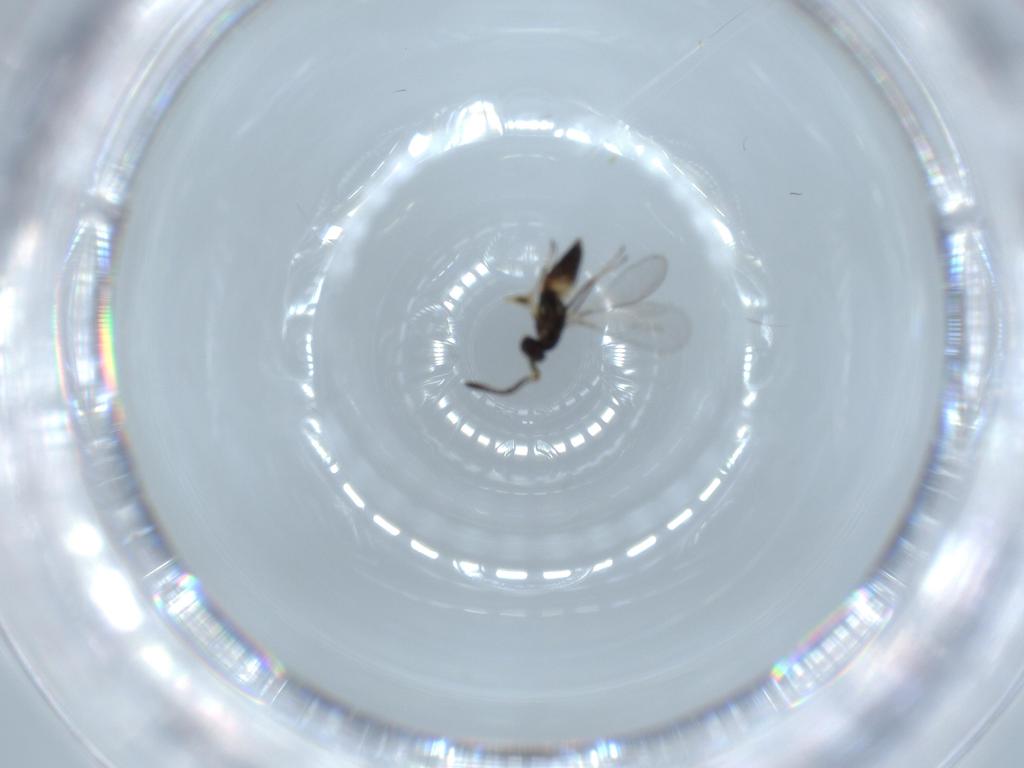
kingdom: Animalia
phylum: Arthropoda
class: Insecta
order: Hymenoptera
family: Mymaridae
